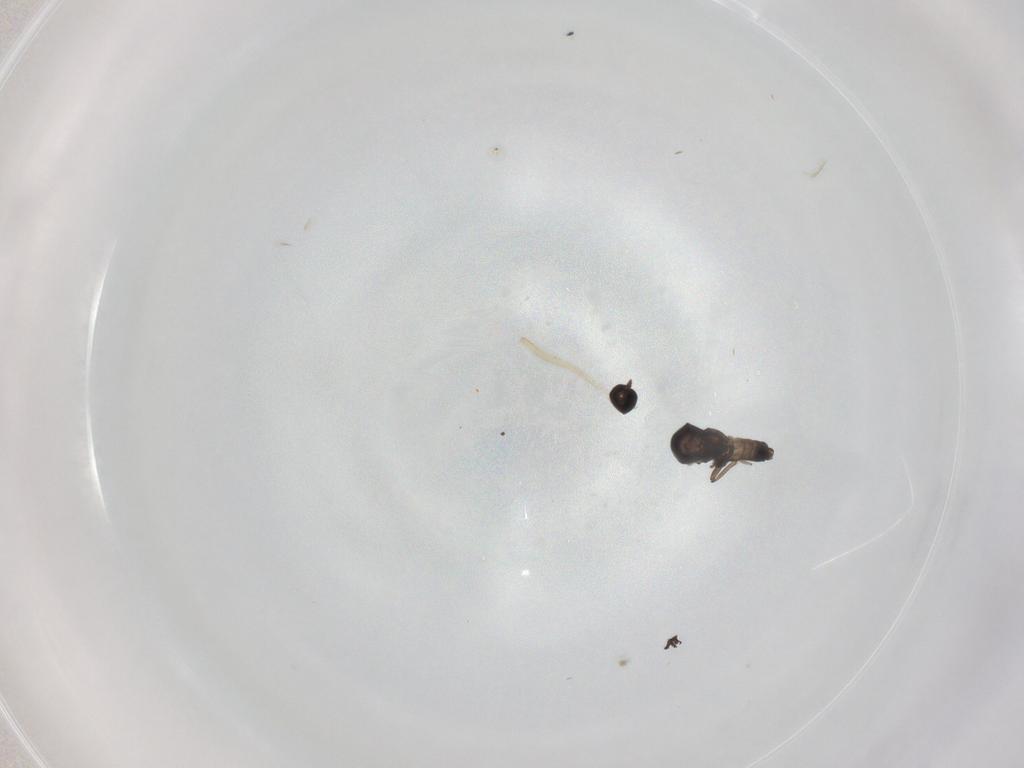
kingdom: Animalia
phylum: Arthropoda
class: Insecta
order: Diptera
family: Ceratopogonidae
